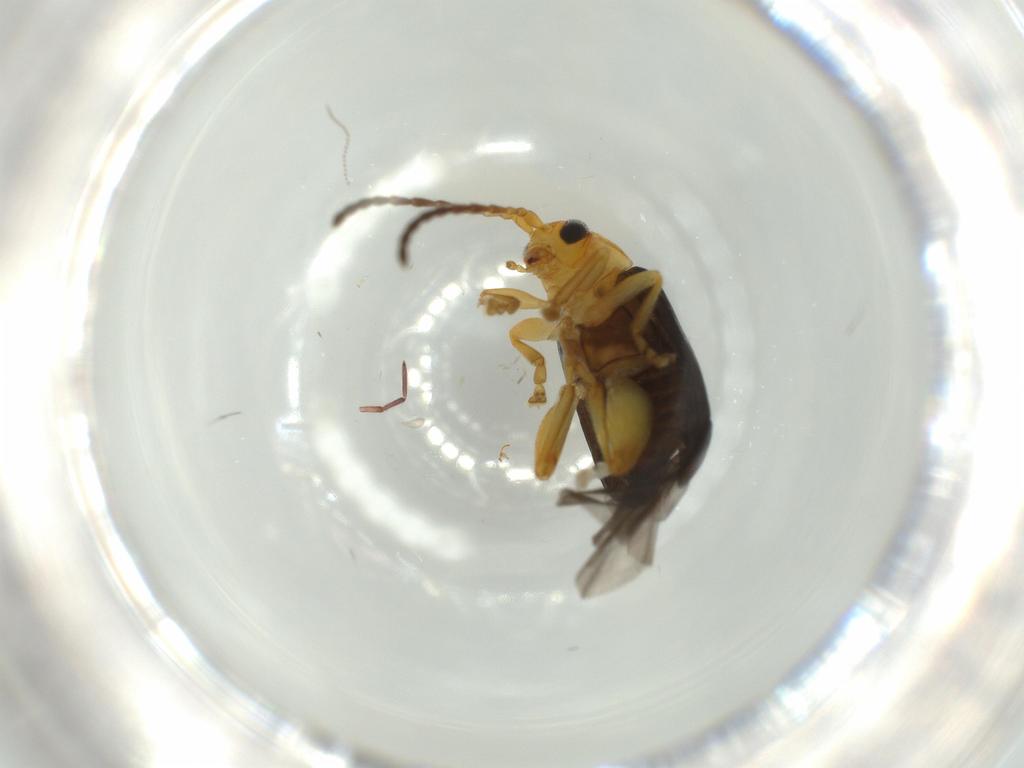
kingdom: Animalia
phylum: Arthropoda
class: Insecta
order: Coleoptera
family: Chrysomelidae
